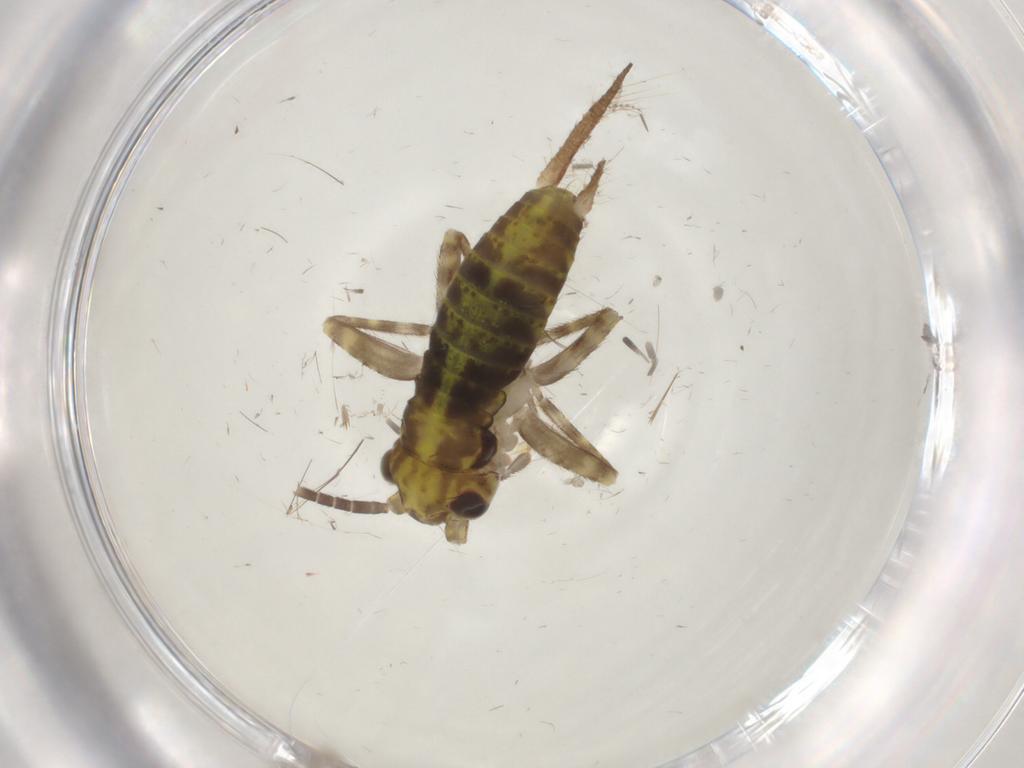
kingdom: Animalia
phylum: Arthropoda
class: Insecta
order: Orthoptera
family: Gryllidae
